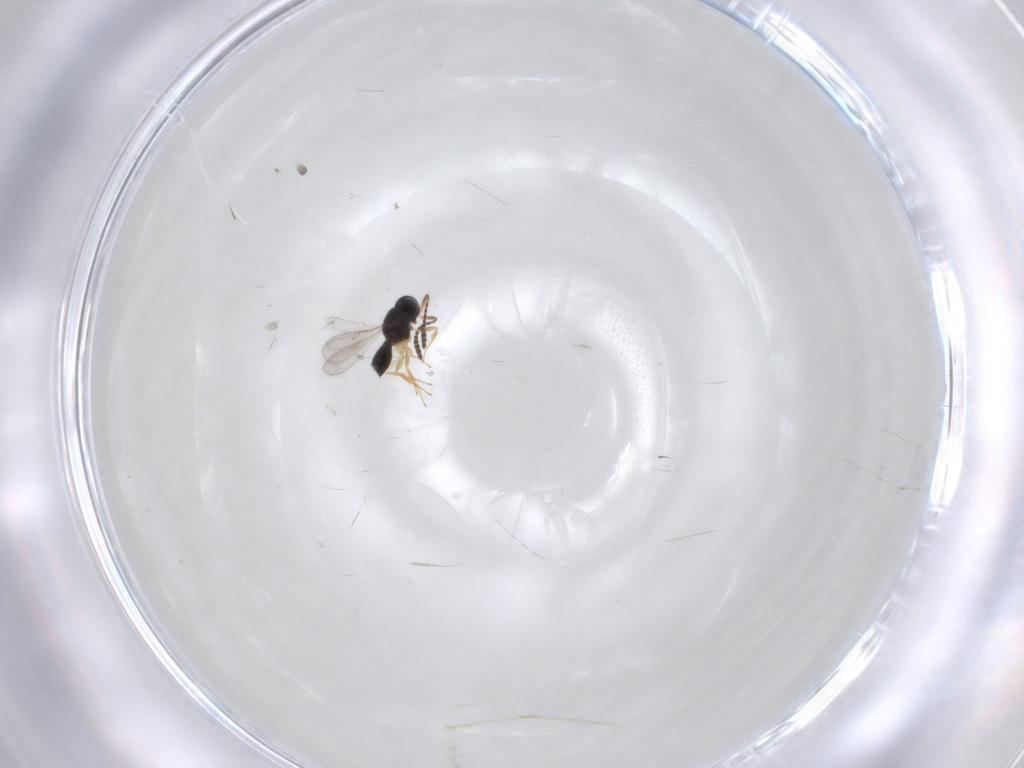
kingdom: Animalia
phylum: Arthropoda
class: Insecta
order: Hymenoptera
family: Scelionidae
